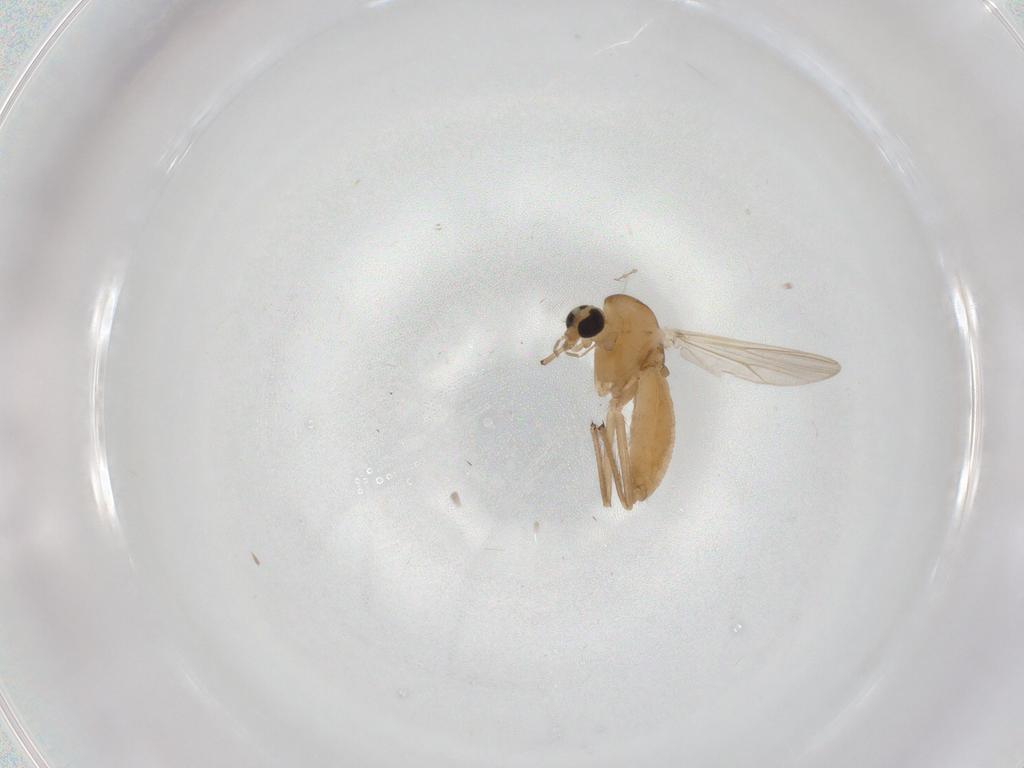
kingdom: Animalia
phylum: Arthropoda
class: Insecta
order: Diptera
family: Chironomidae
